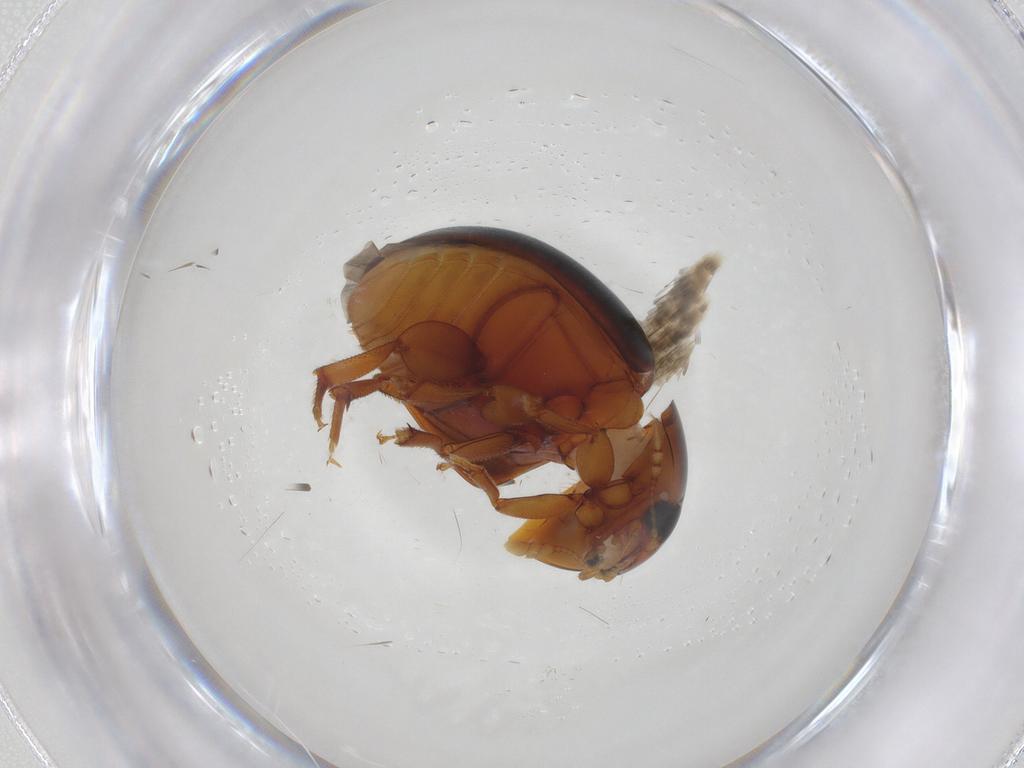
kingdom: Animalia
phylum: Arthropoda
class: Insecta
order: Coleoptera
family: Phalacridae
